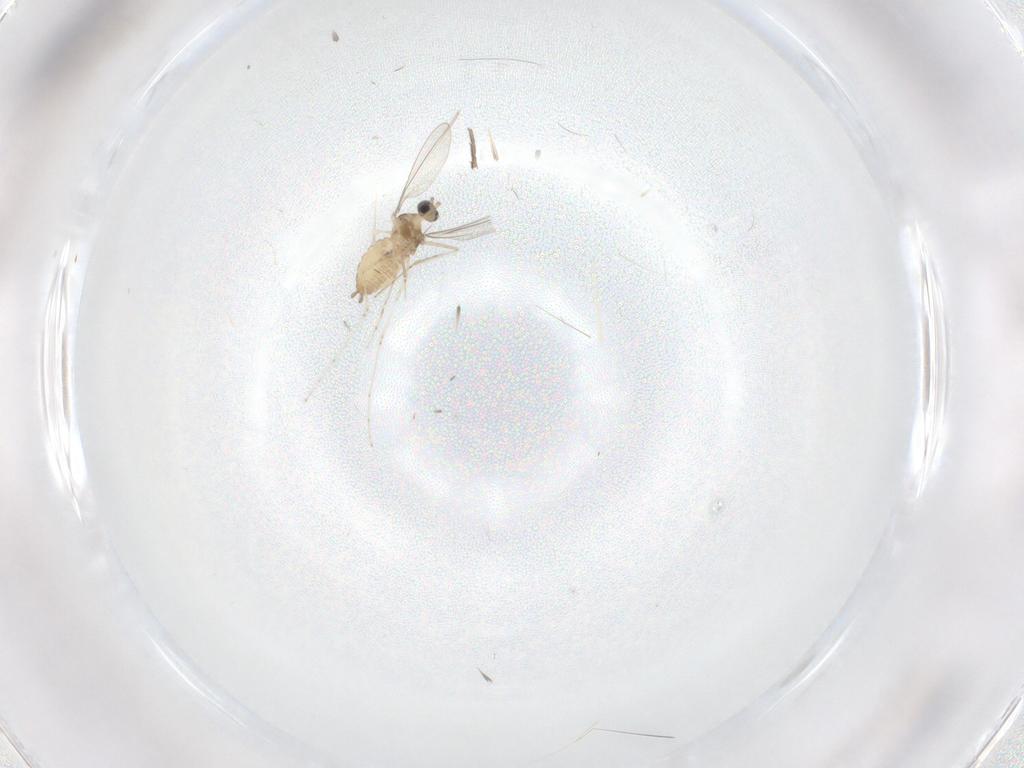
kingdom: Animalia
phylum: Arthropoda
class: Insecta
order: Diptera
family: Cecidomyiidae
